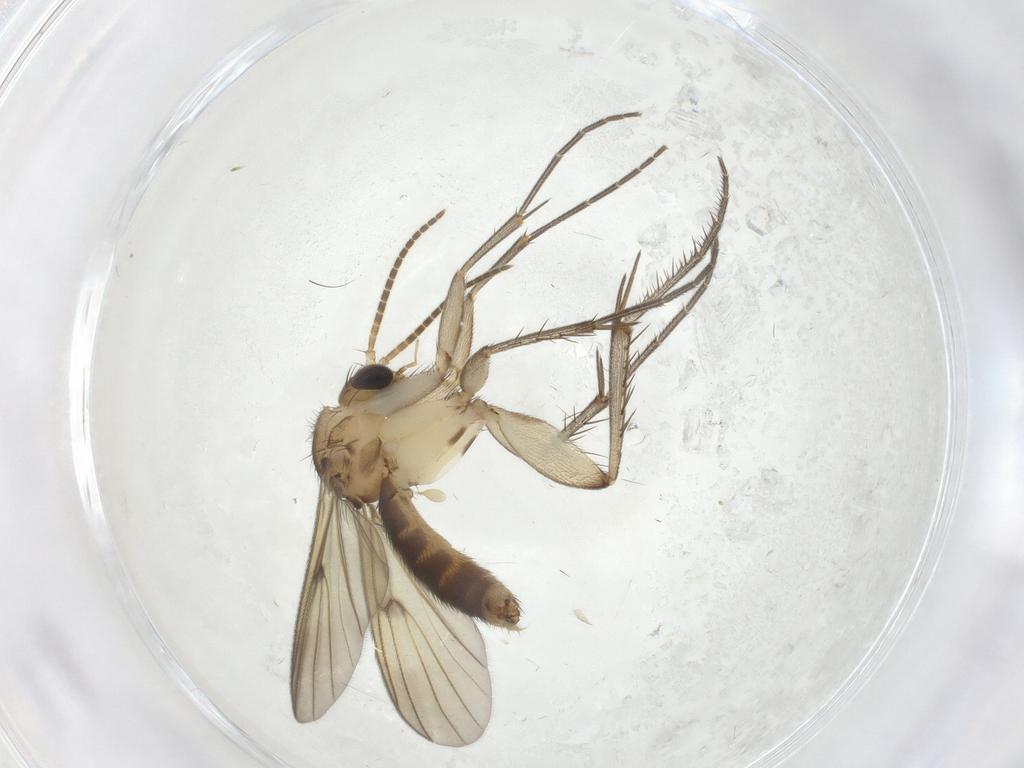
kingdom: Animalia
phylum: Arthropoda
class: Insecta
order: Diptera
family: Mycetophilidae
